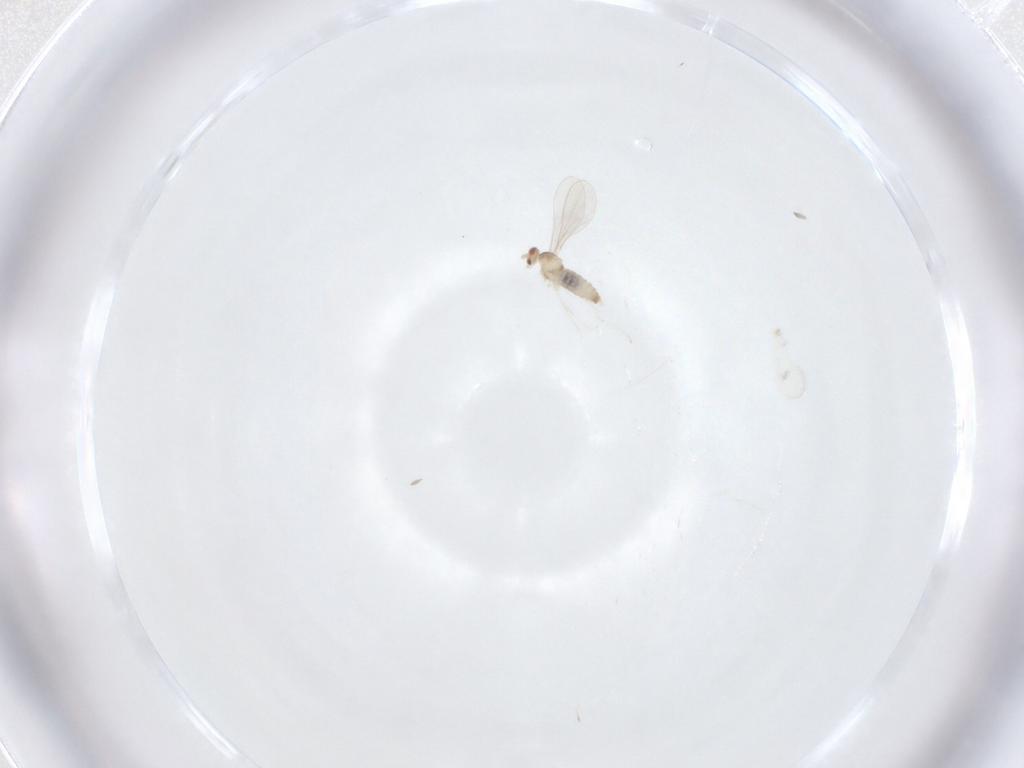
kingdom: Animalia
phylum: Arthropoda
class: Insecta
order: Diptera
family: Cecidomyiidae
